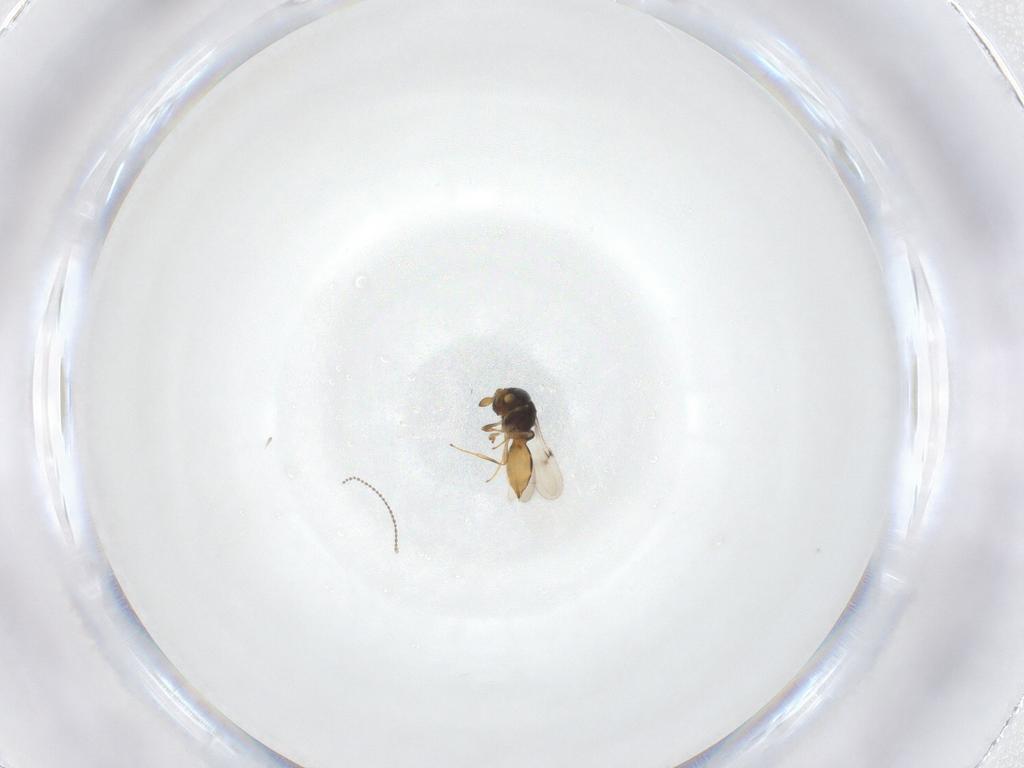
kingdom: Animalia
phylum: Arthropoda
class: Insecta
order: Hymenoptera
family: Scelionidae
